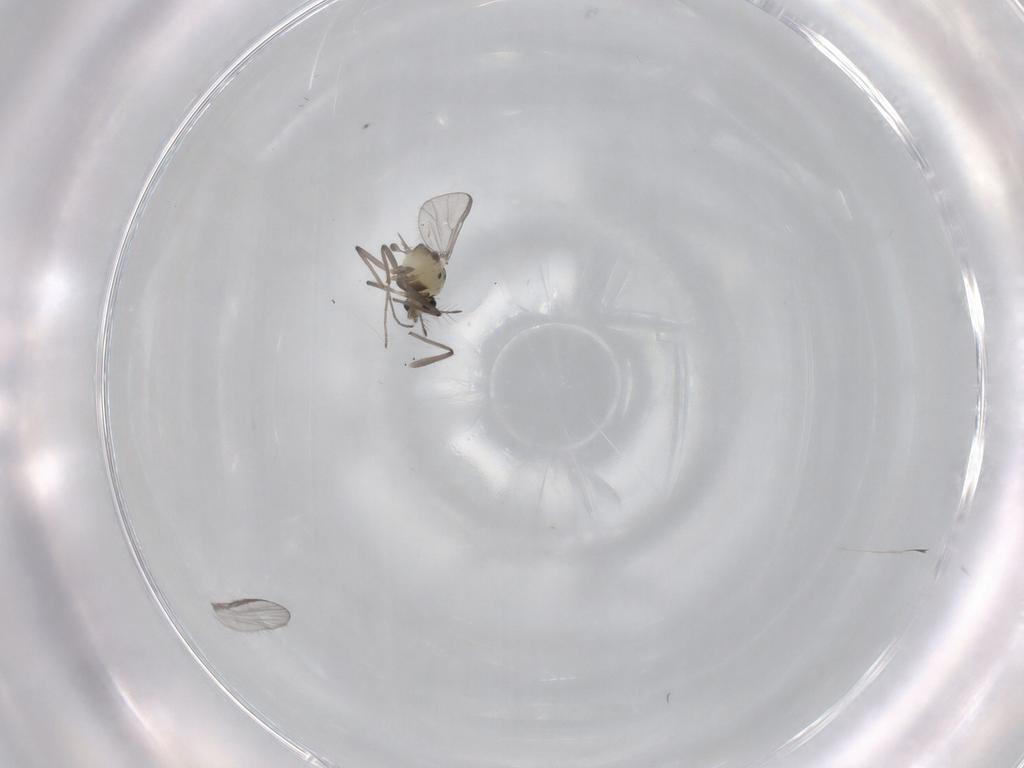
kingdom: Animalia
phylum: Arthropoda
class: Insecta
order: Diptera
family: Chironomidae
